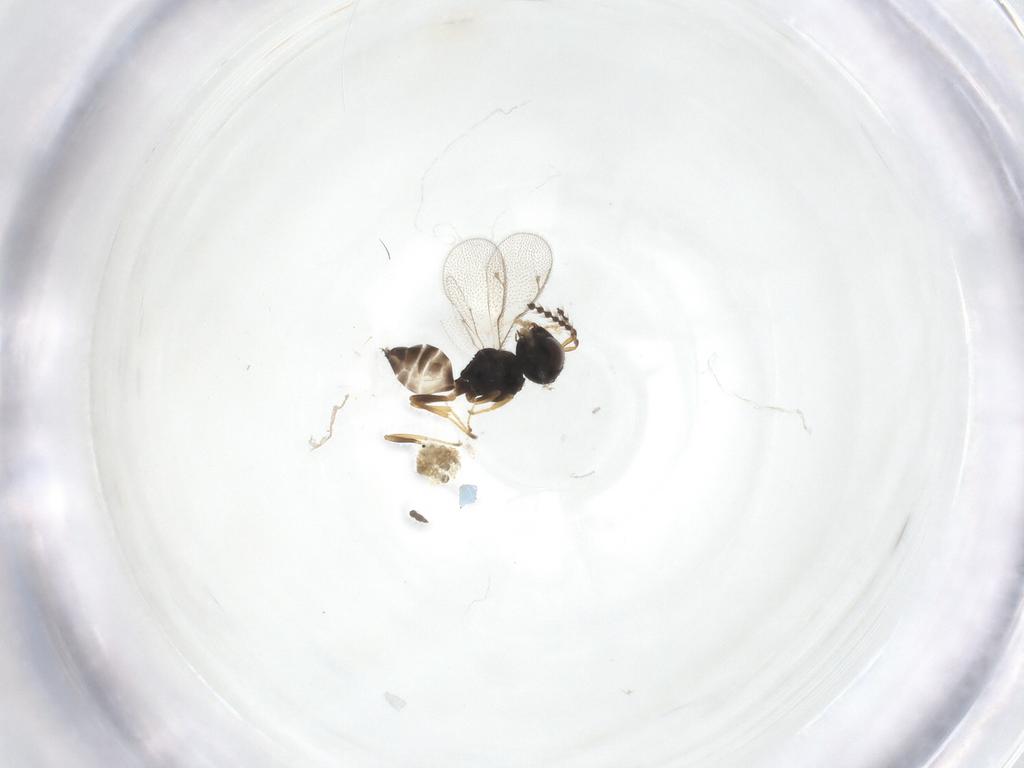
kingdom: Animalia
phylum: Arthropoda
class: Insecta
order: Hymenoptera
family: Pteromalidae
